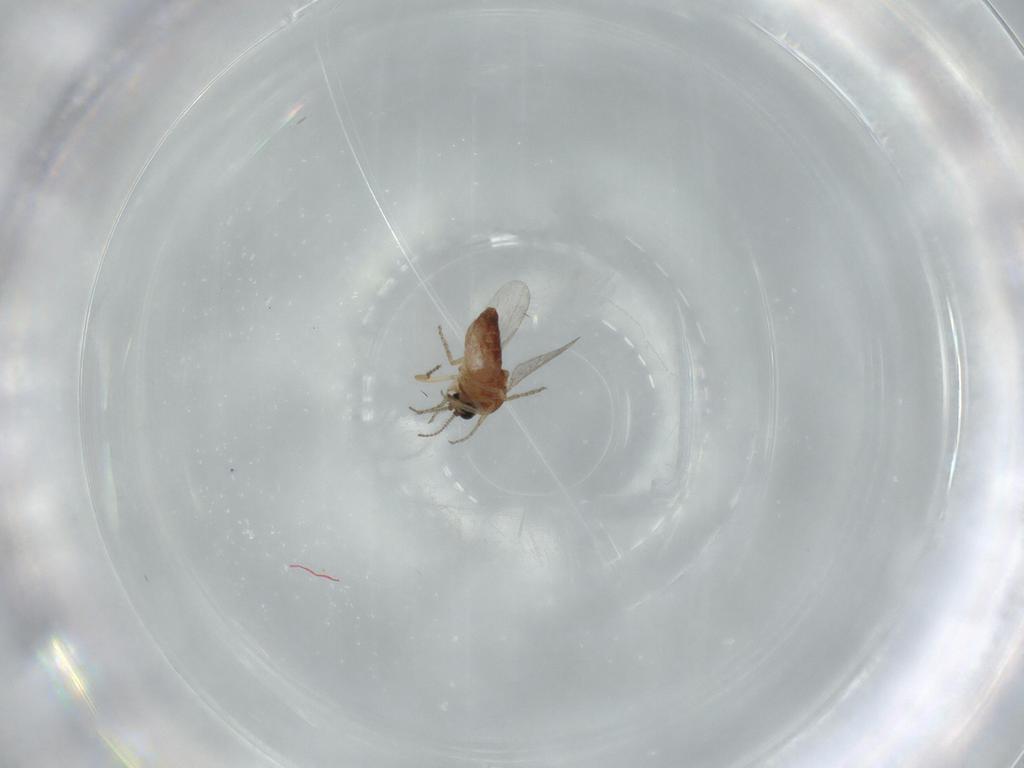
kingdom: Animalia
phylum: Arthropoda
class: Insecta
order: Diptera
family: Ceratopogonidae
